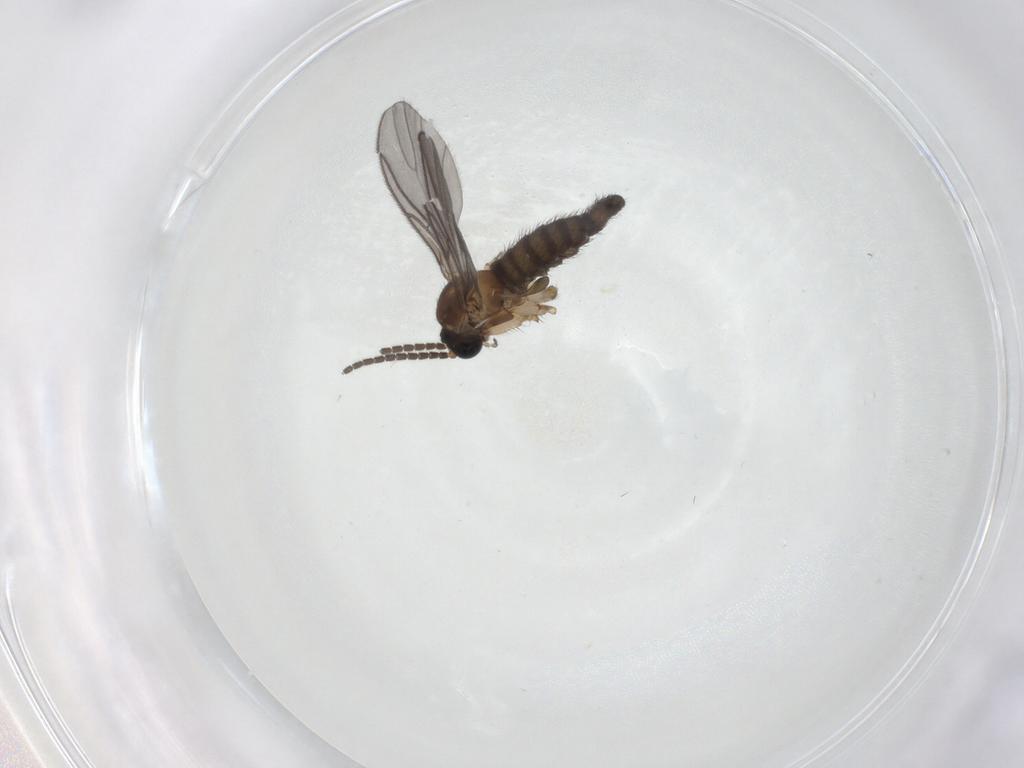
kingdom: Animalia
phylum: Arthropoda
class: Insecta
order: Diptera
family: Sciaridae
